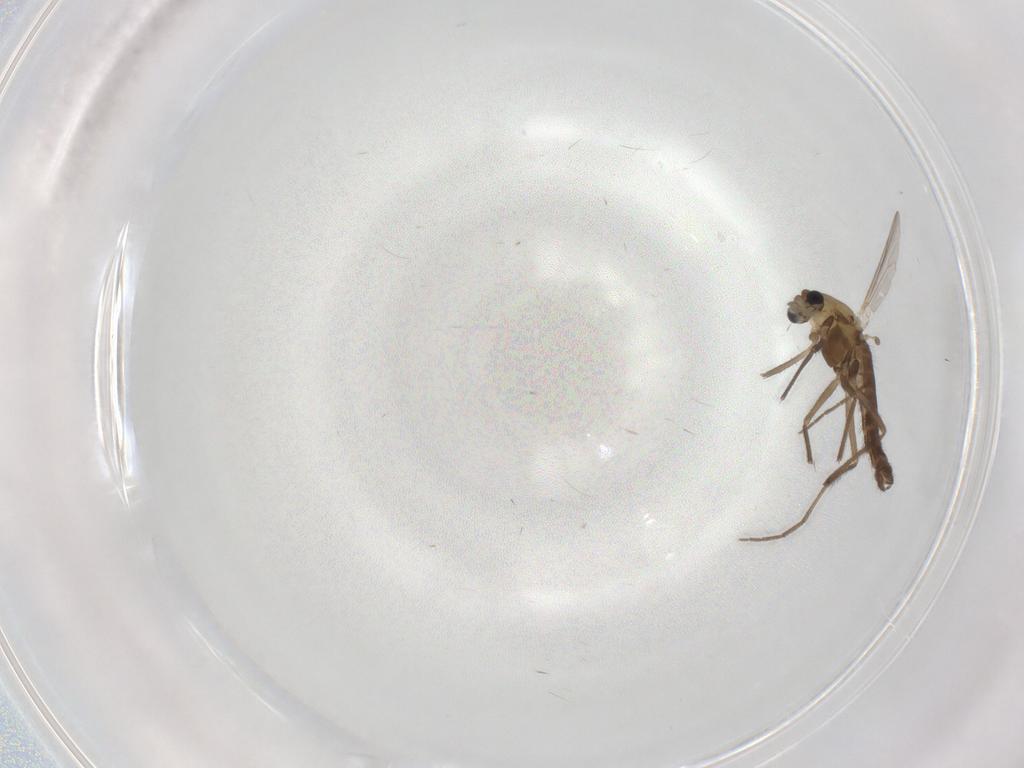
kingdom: Animalia
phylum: Arthropoda
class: Insecta
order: Diptera
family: Chironomidae
